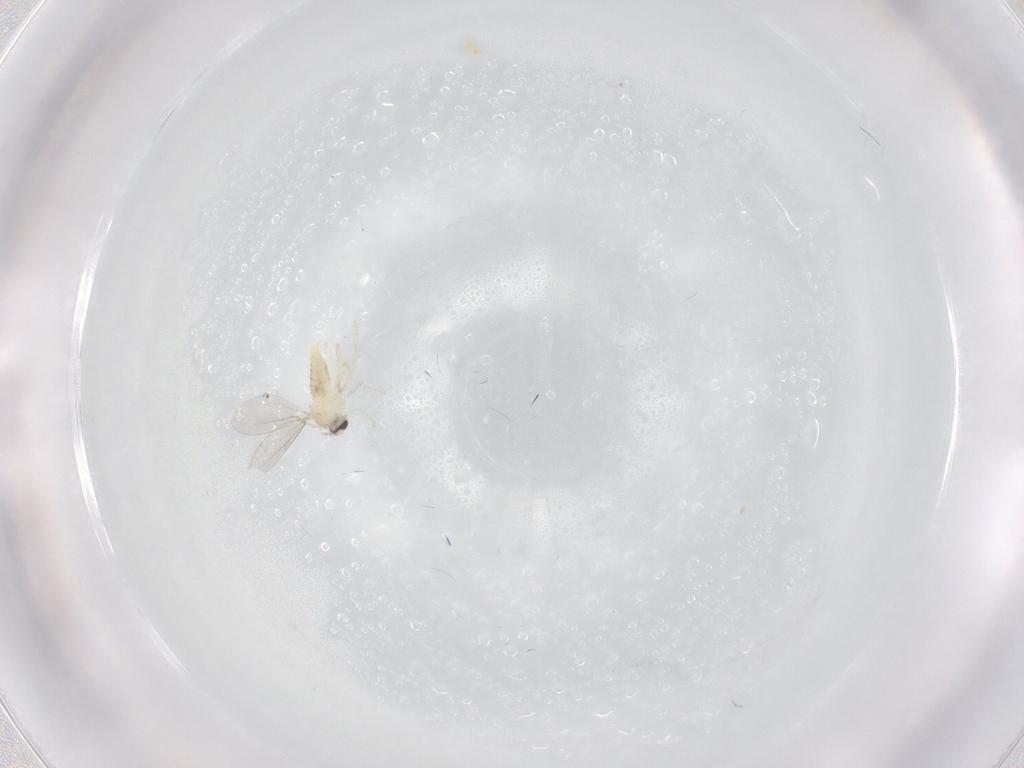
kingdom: Animalia
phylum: Arthropoda
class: Insecta
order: Diptera
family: Cecidomyiidae
